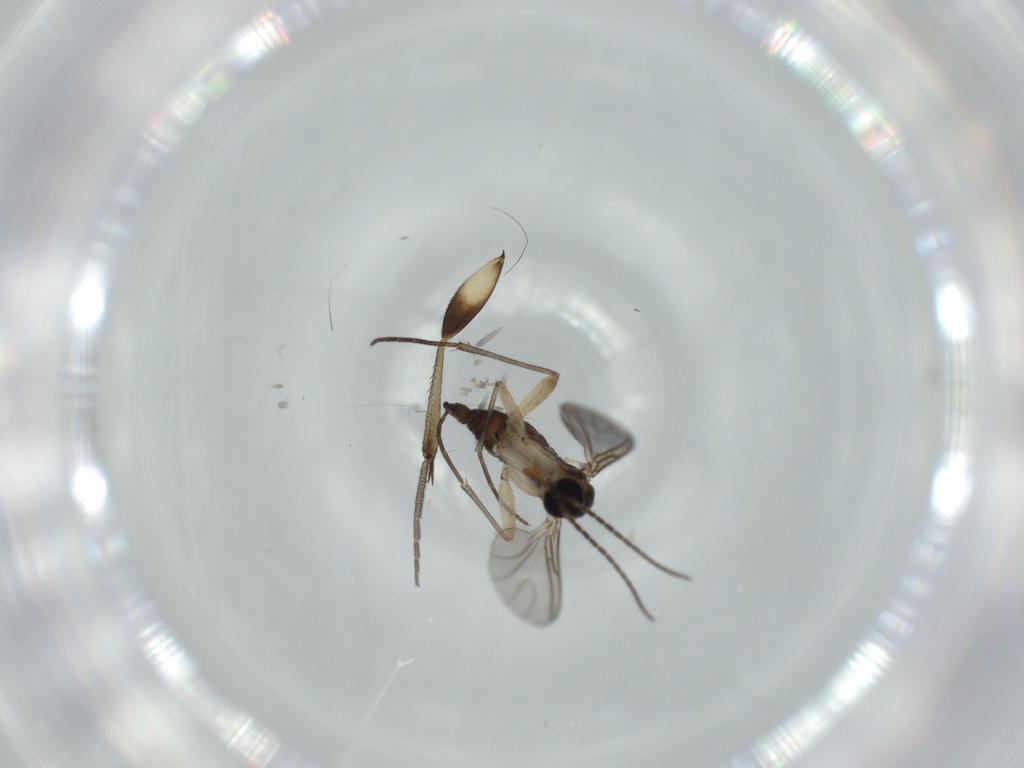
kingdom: Animalia
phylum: Arthropoda
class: Insecta
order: Diptera
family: Sciaridae
